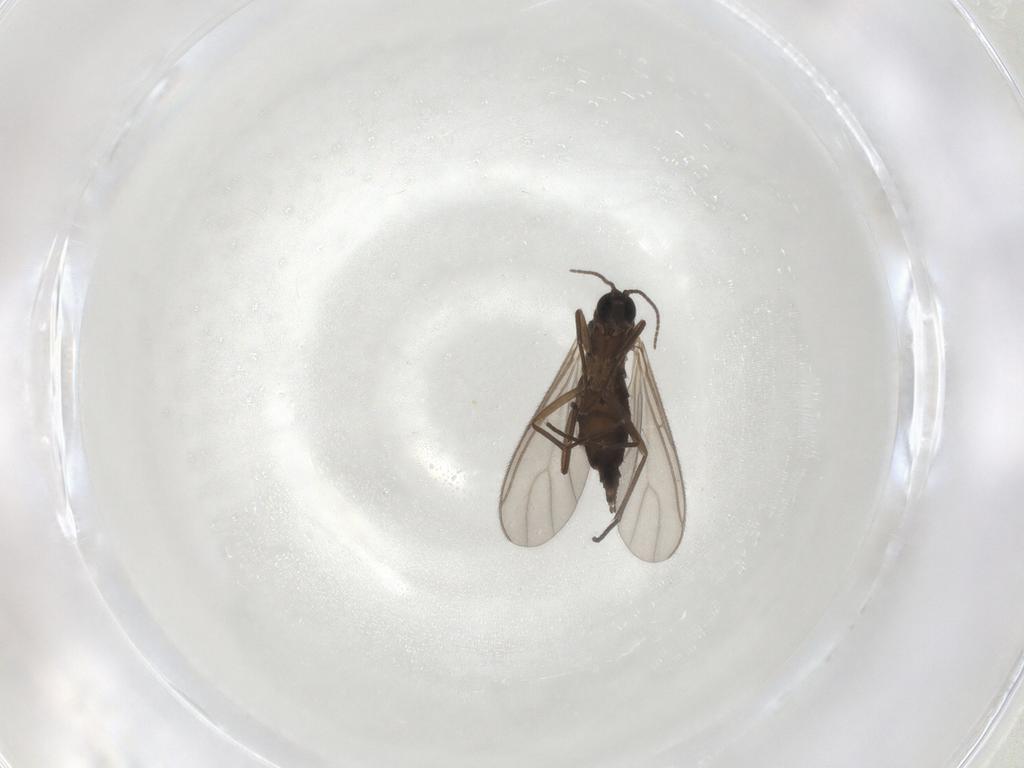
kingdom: Animalia
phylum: Arthropoda
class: Insecta
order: Diptera
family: Sciaridae
